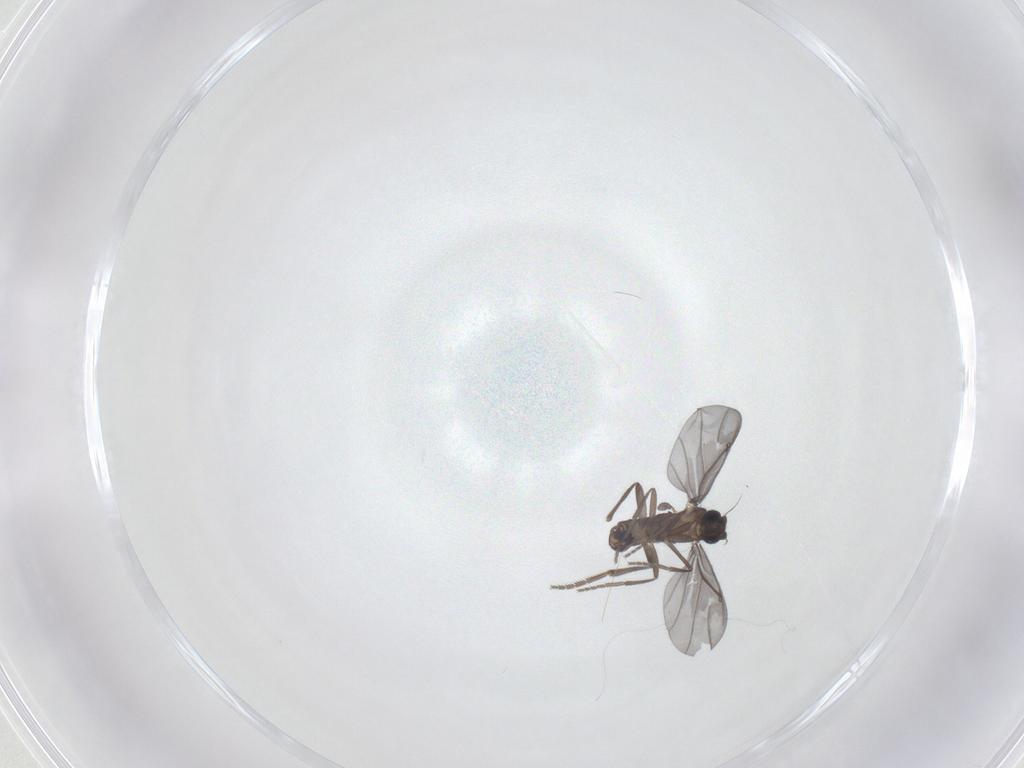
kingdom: Animalia
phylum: Arthropoda
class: Insecta
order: Diptera
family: Phoridae
